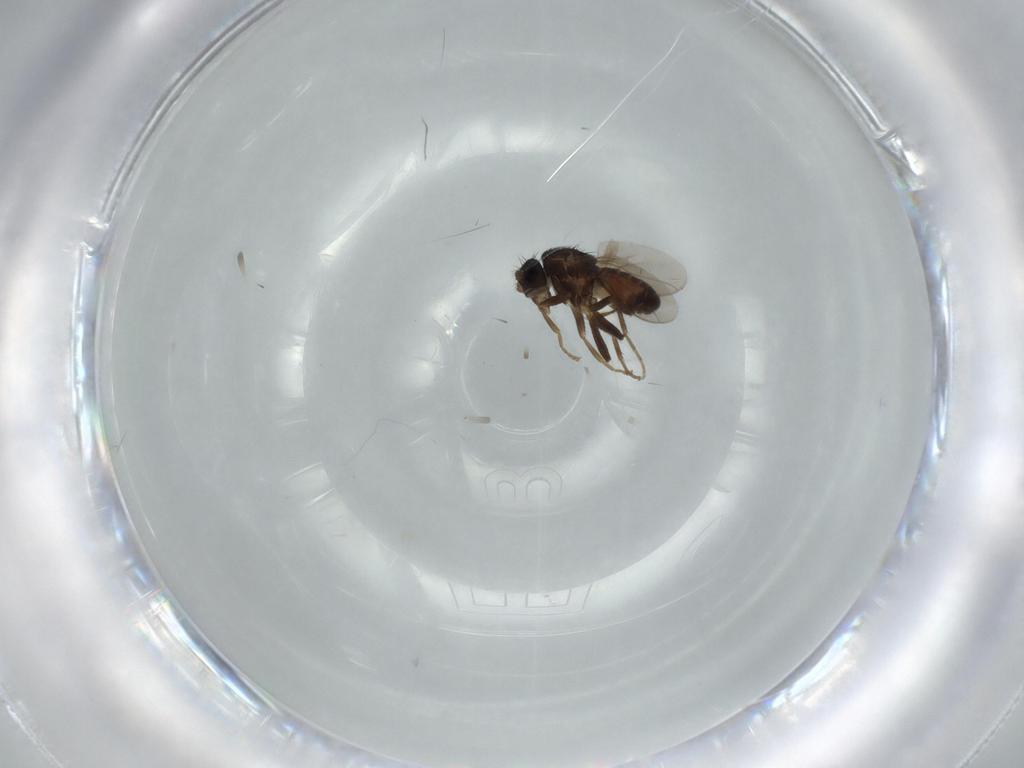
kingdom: Animalia
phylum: Arthropoda
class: Insecta
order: Diptera
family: Sphaeroceridae
